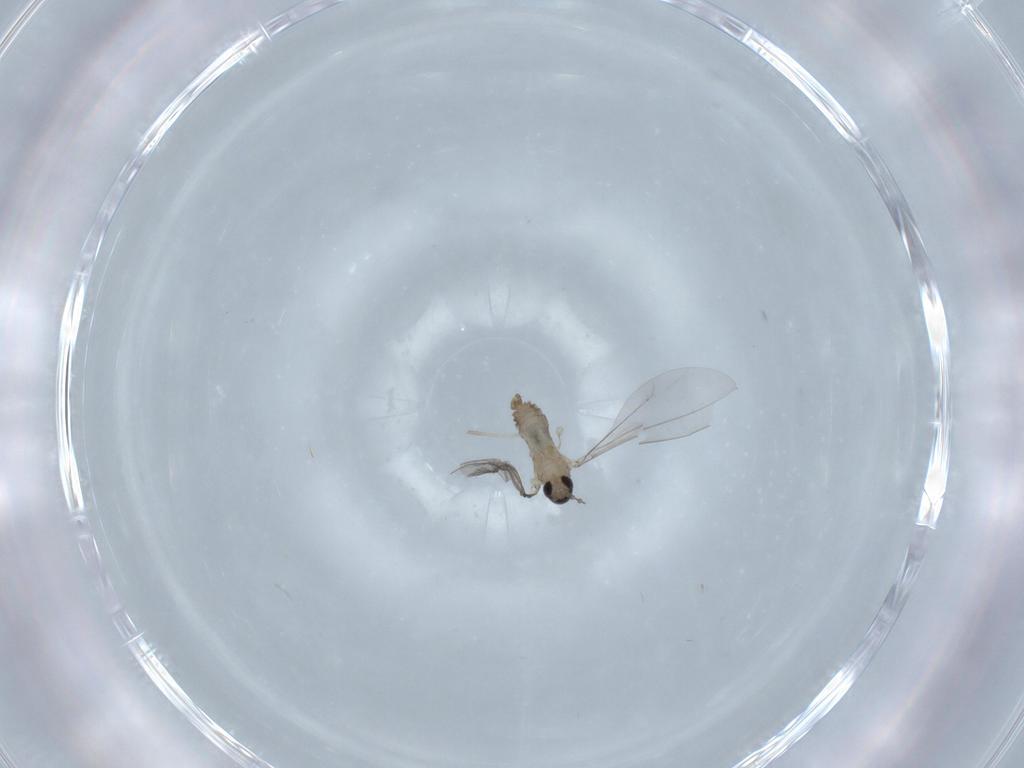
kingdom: Animalia
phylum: Arthropoda
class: Insecta
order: Diptera
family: Cecidomyiidae
